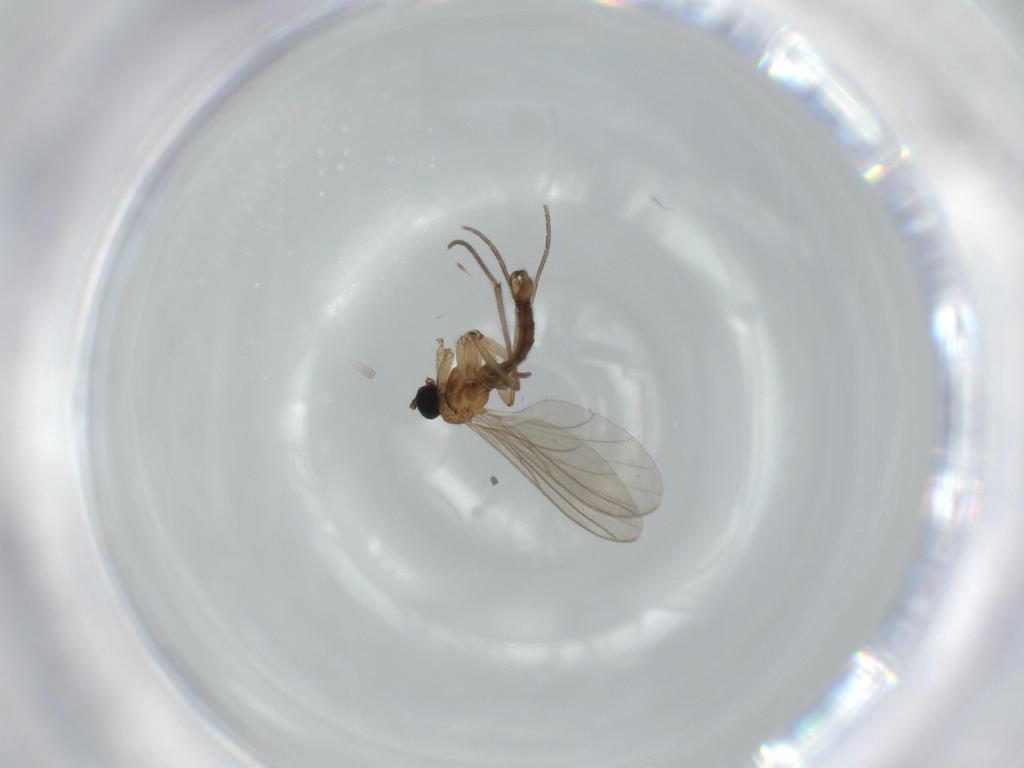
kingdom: Animalia
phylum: Arthropoda
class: Insecta
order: Diptera
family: Sciaridae
